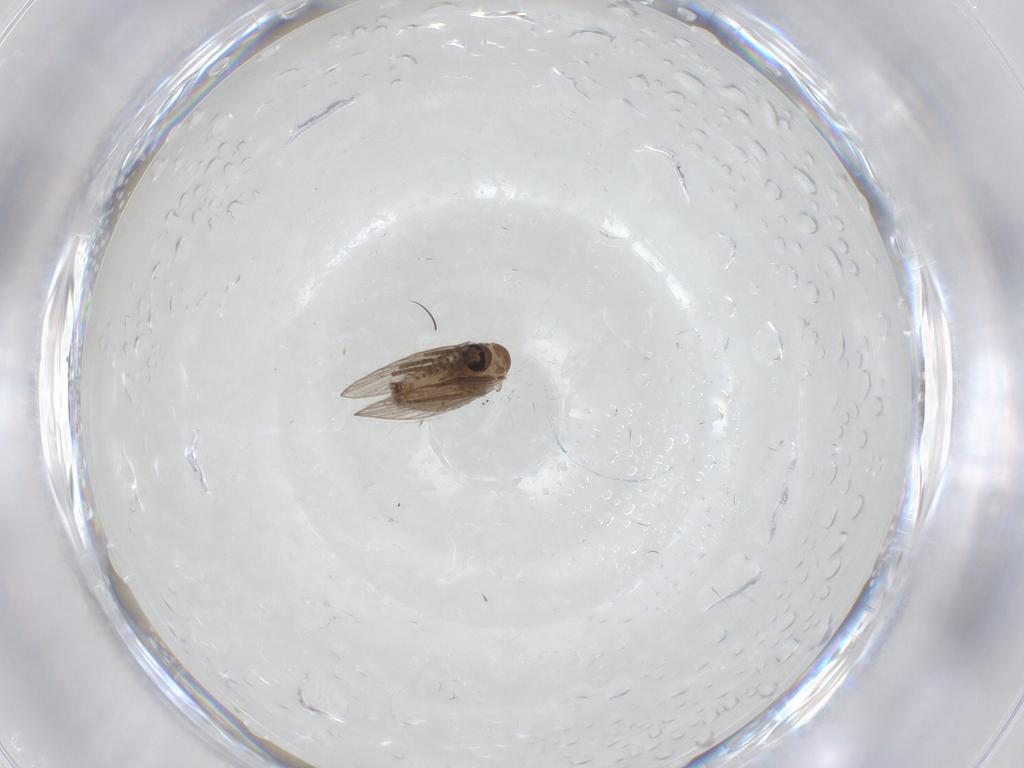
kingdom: Animalia
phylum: Arthropoda
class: Insecta
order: Diptera
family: Psychodidae
